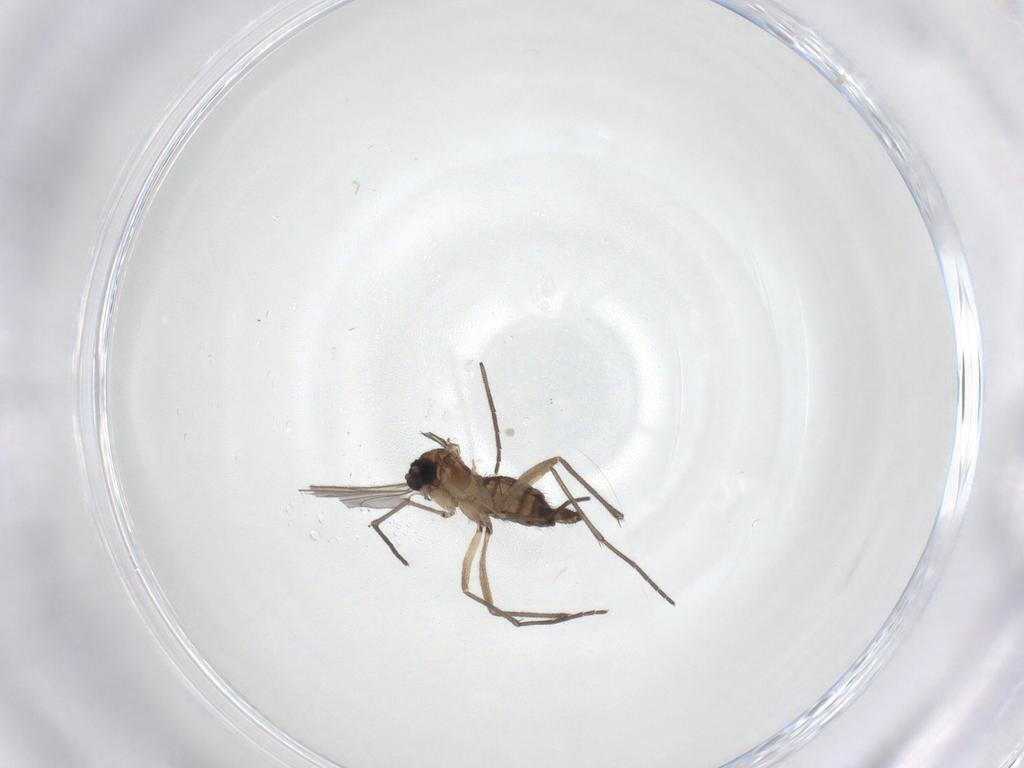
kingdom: Animalia
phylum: Arthropoda
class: Insecta
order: Diptera
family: Sciaridae
